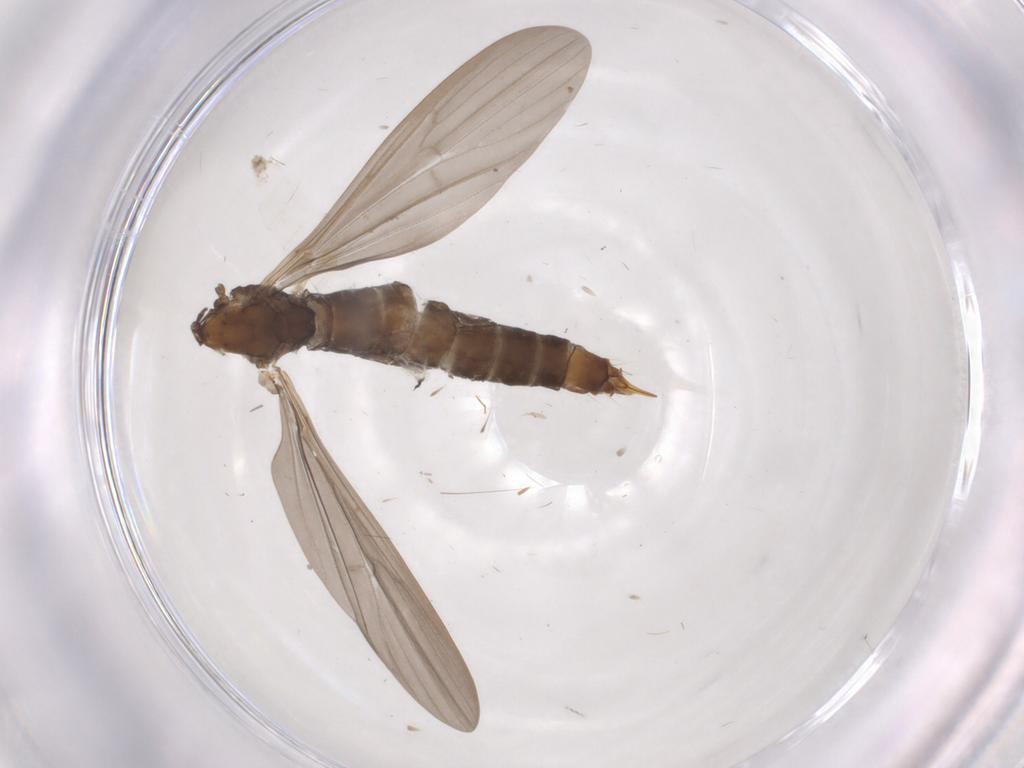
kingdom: Animalia
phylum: Arthropoda
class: Insecta
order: Diptera
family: Limoniidae
